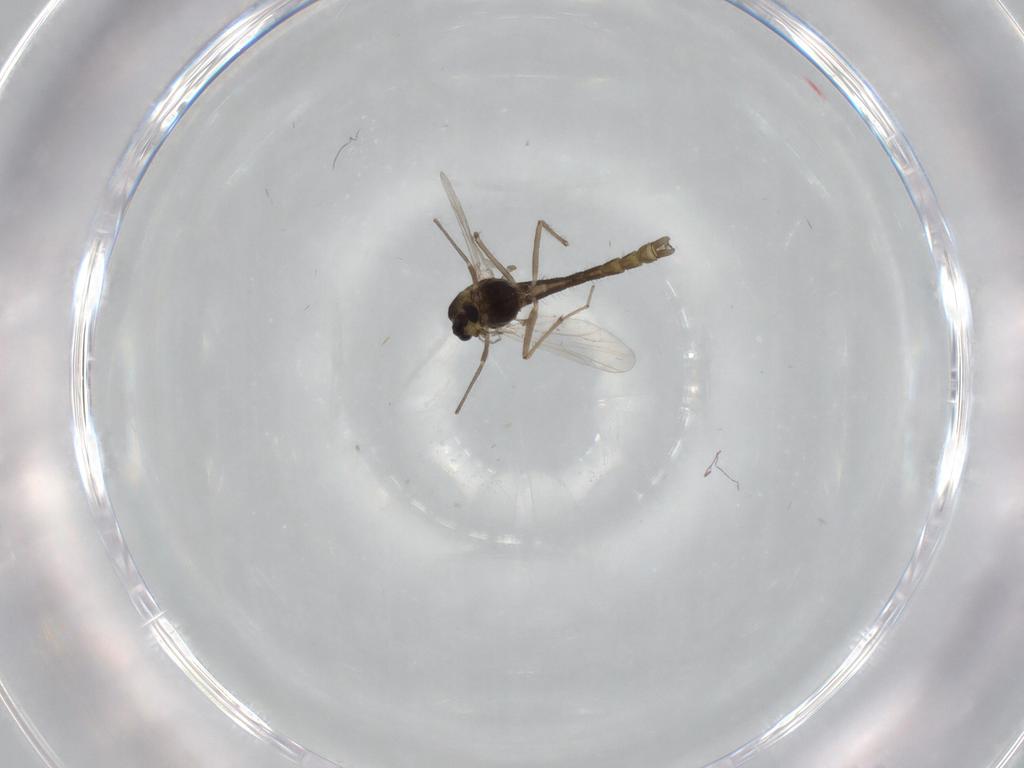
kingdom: Animalia
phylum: Arthropoda
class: Insecta
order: Diptera
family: Chironomidae
